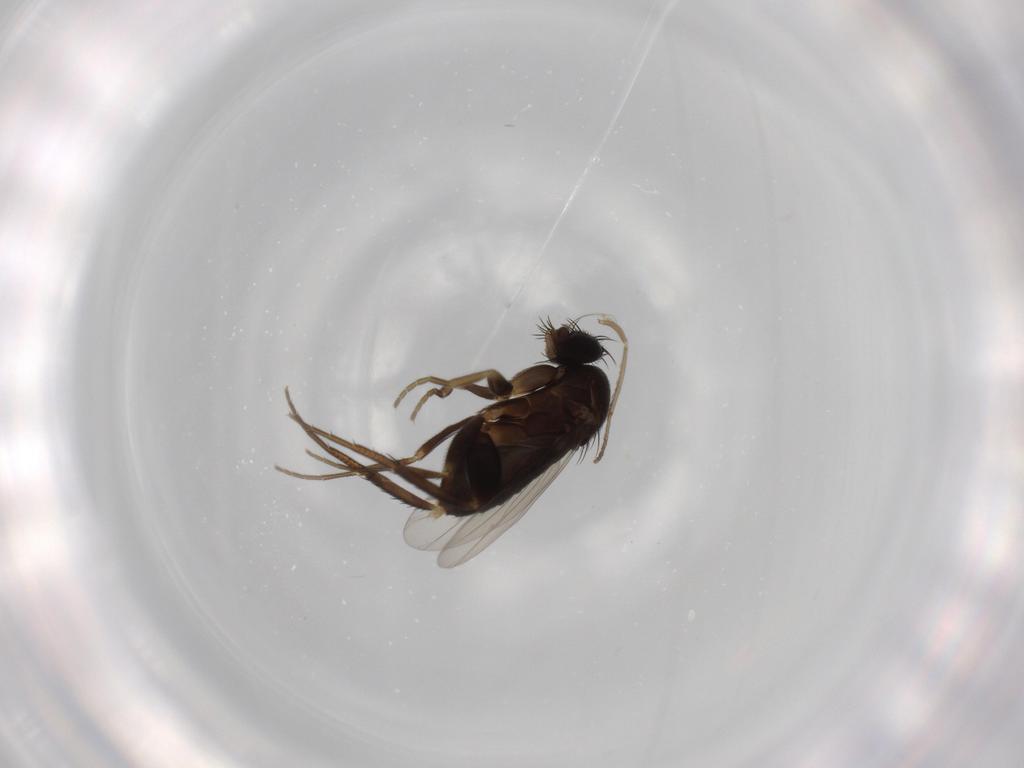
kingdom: Animalia
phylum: Arthropoda
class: Insecta
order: Diptera
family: Phoridae
